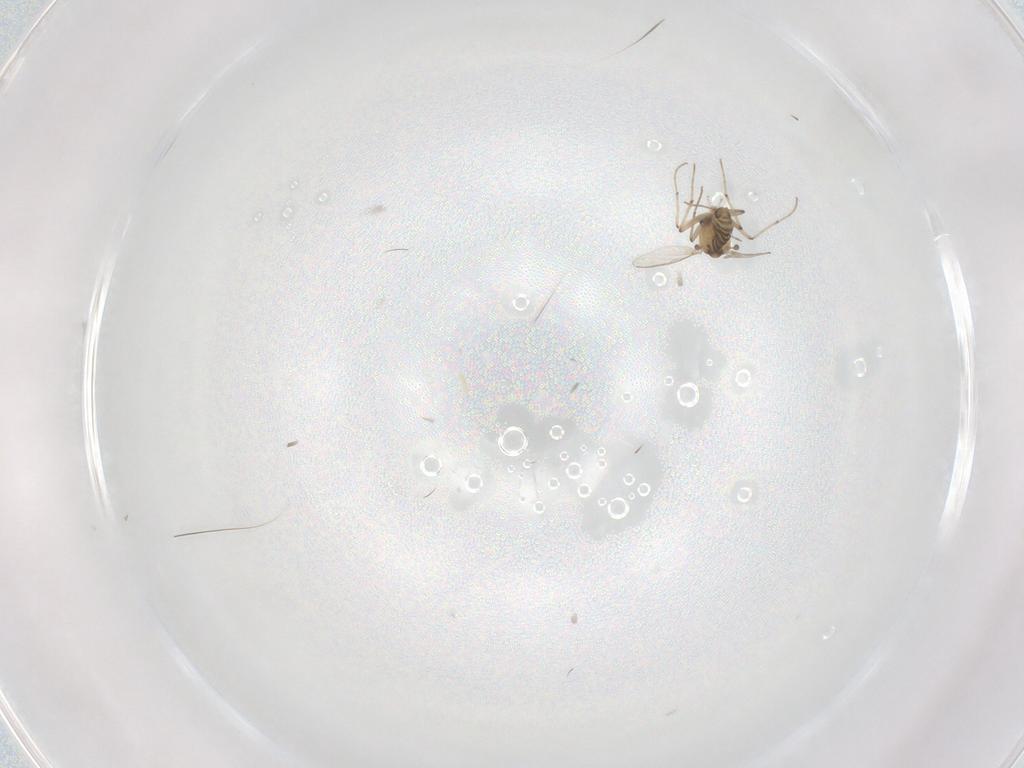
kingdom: Animalia
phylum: Arthropoda
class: Insecta
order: Diptera
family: Chironomidae
